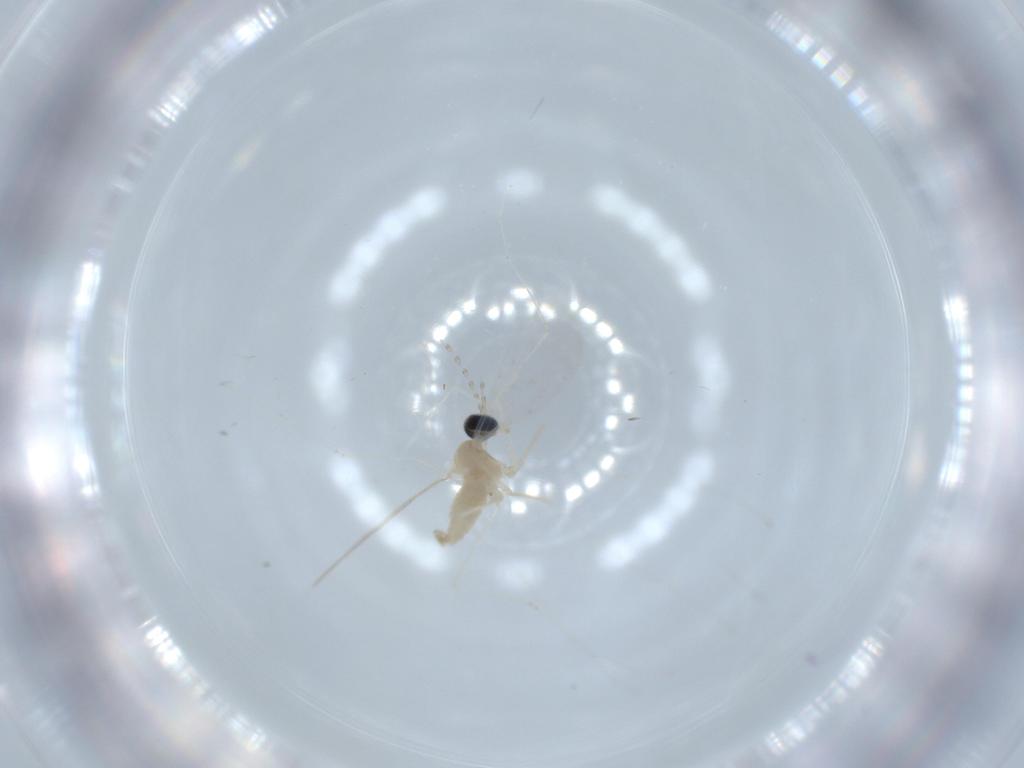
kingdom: Animalia
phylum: Arthropoda
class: Insecta
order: Diptera
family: Cecidomyiidae
